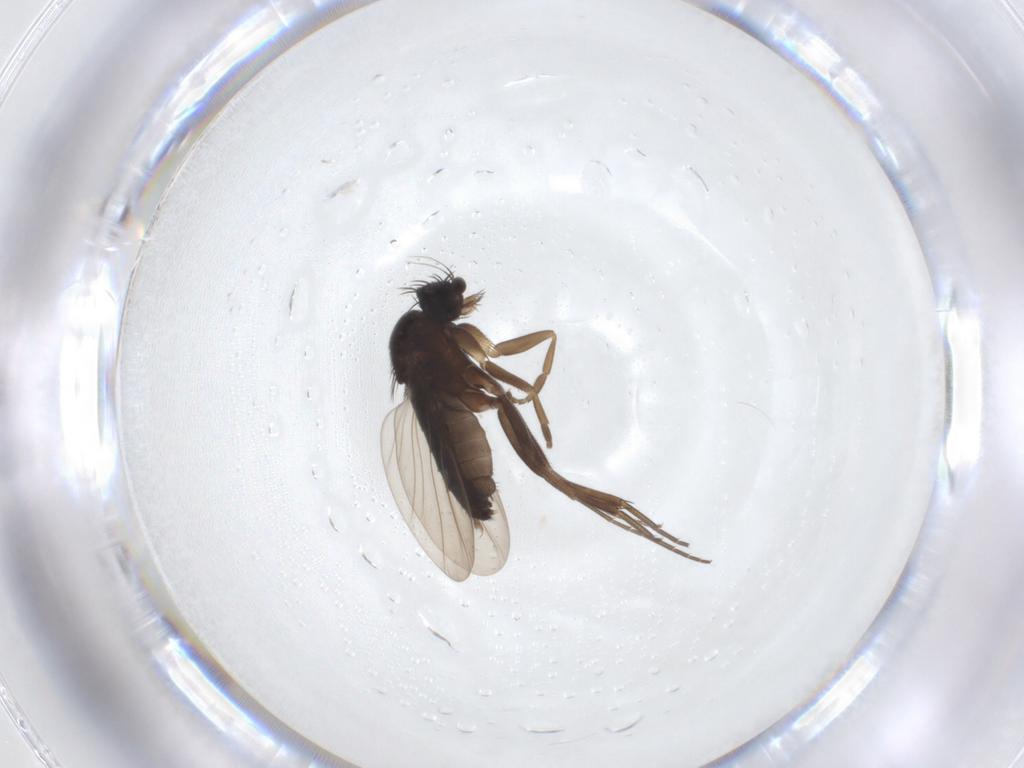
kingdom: Animalia
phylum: Arthropoda
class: Insecta
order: Diptera
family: Phoridae
